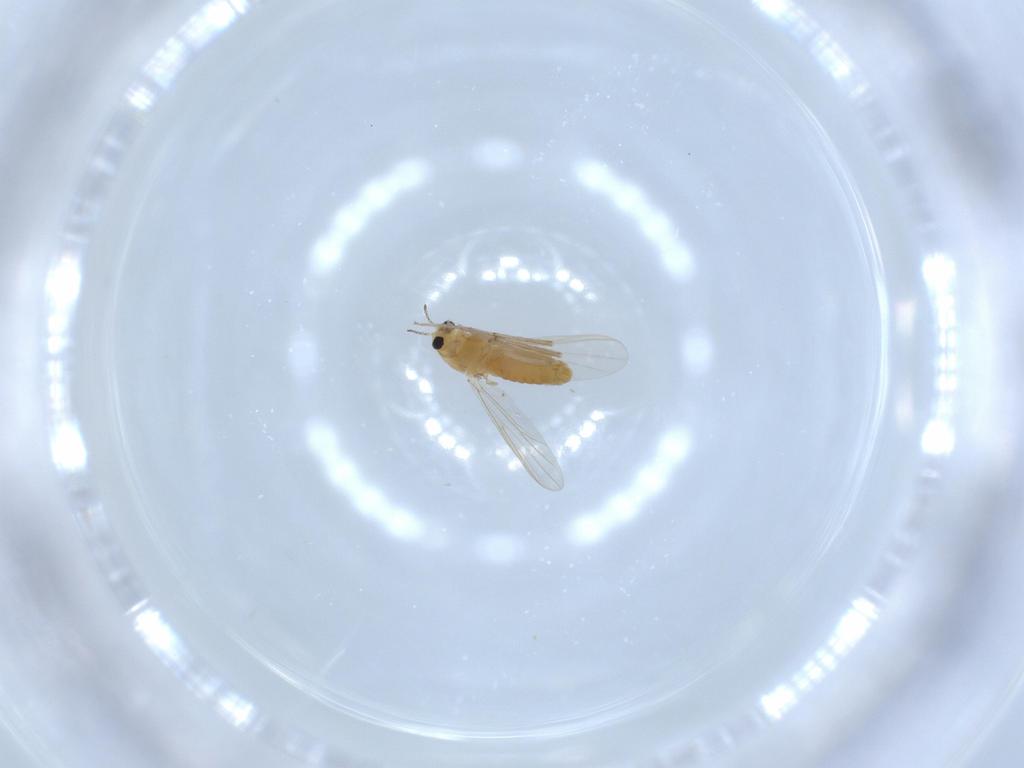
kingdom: Animalia
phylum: Arthropoda
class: Insecta
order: Diptera
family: Chironomidae
